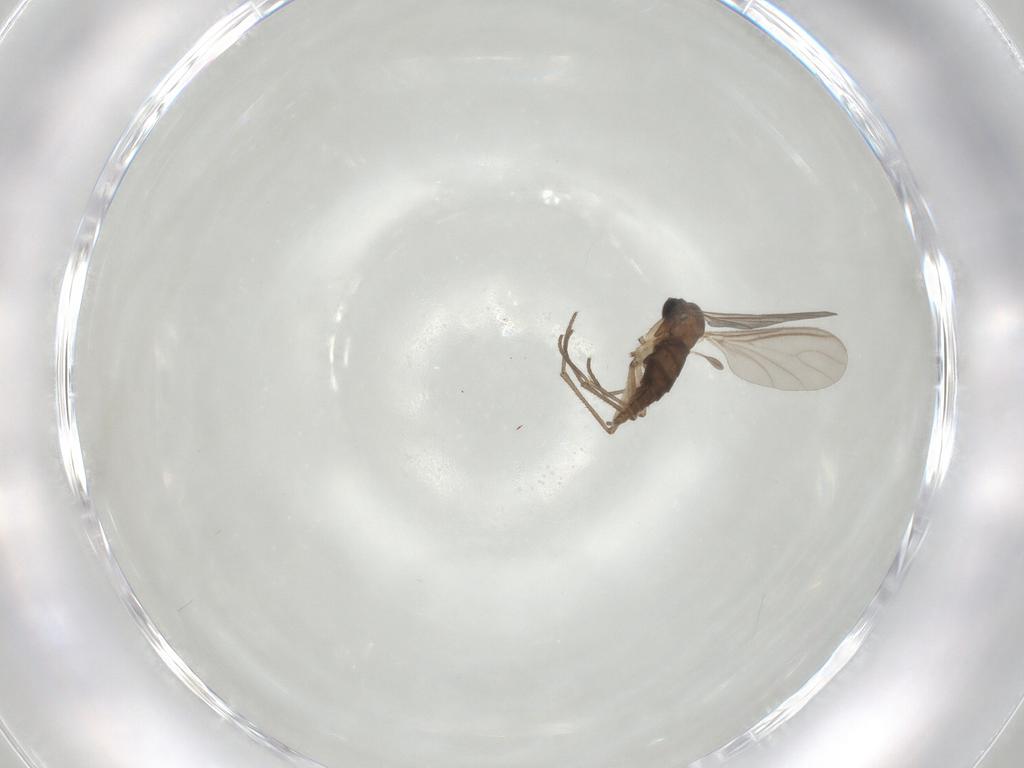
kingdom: Animalia
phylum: Arthropoda
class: Insecta
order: Diptera
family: Sciaridae
